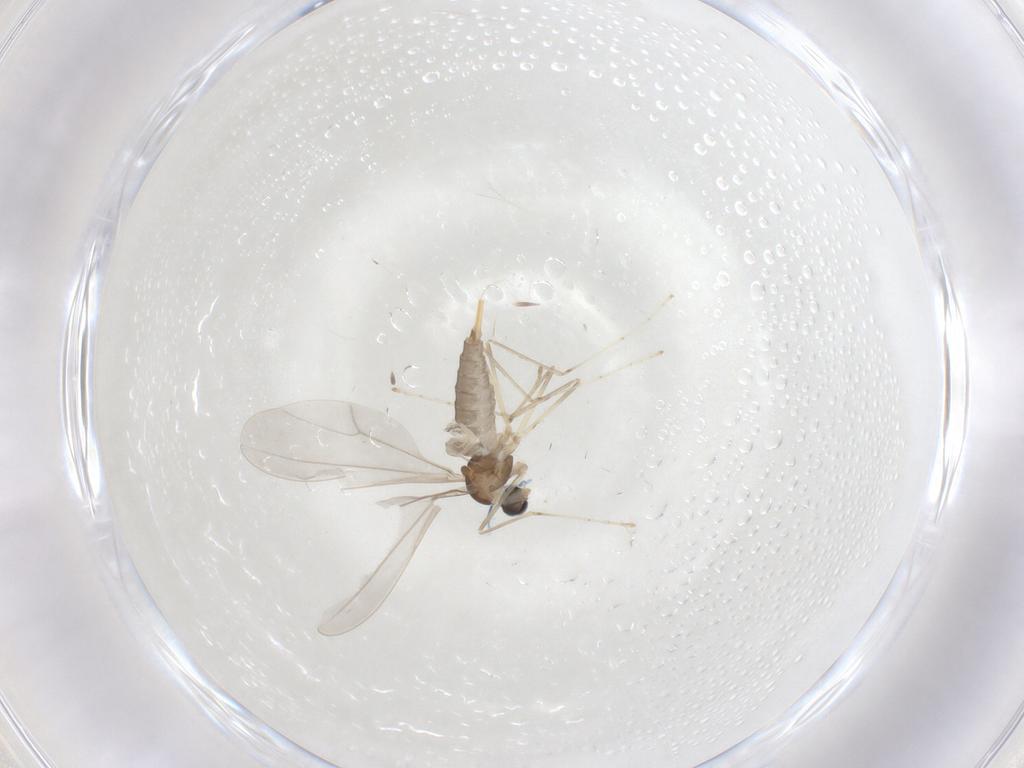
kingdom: Animalia
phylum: Arthropoda
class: Insecta
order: Diptera
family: Cecidomyiidae
